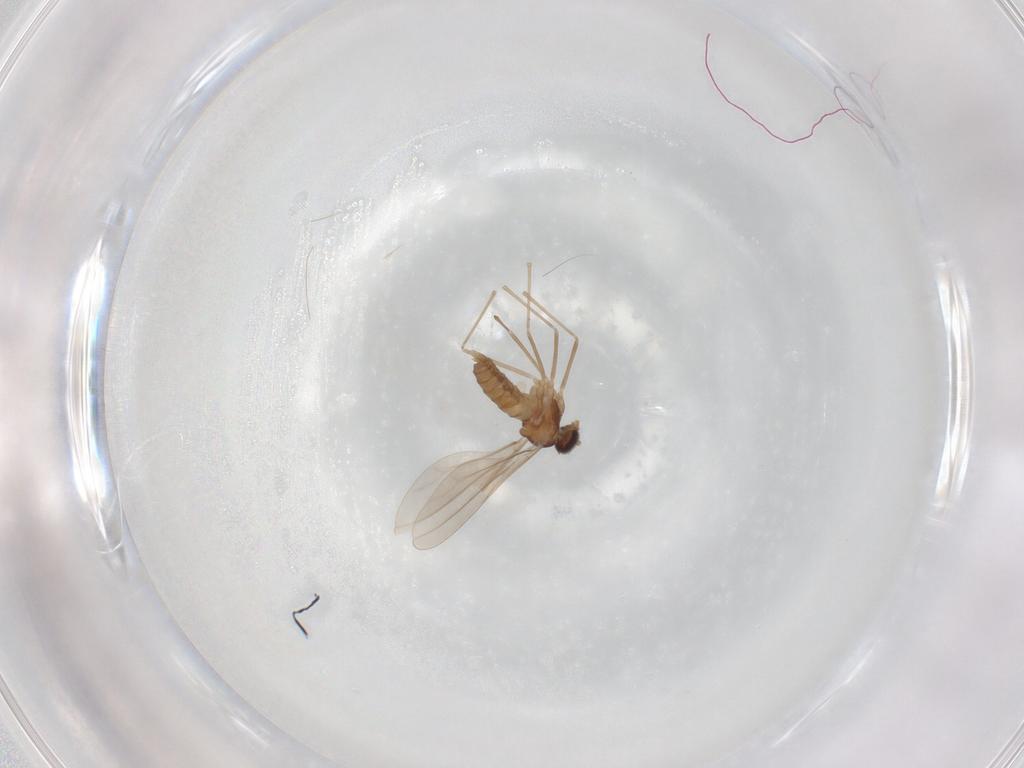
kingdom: Animalia
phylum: Arthropoda
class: Insecta
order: Diptera
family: Cecidomyiidae
